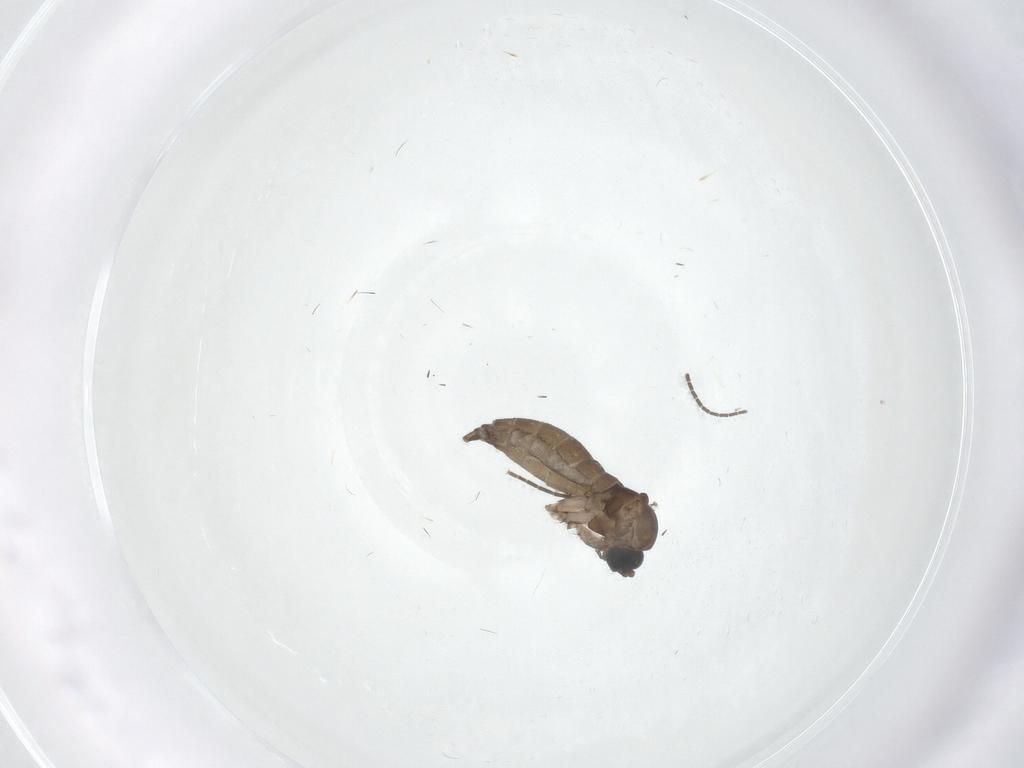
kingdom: Animalia
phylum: Arthropoda
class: Insecta
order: Diptera
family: Sciaridae
